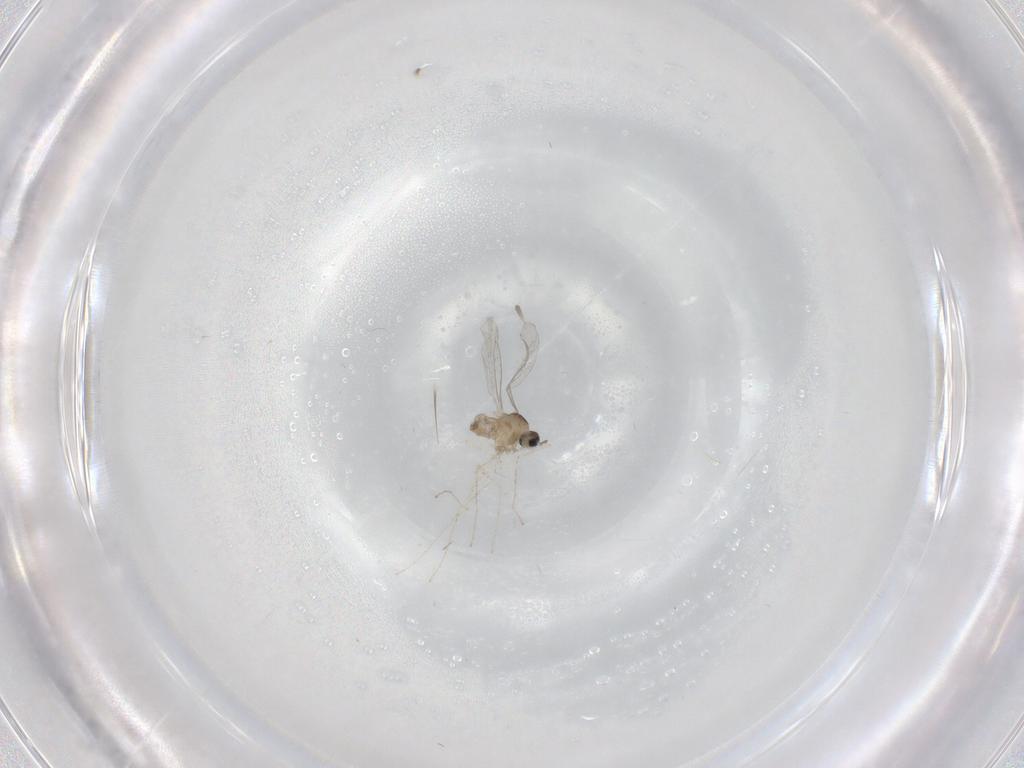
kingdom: Animalia
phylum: Arthropoda
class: Insecta
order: Diptera
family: Cecidomyiidae
